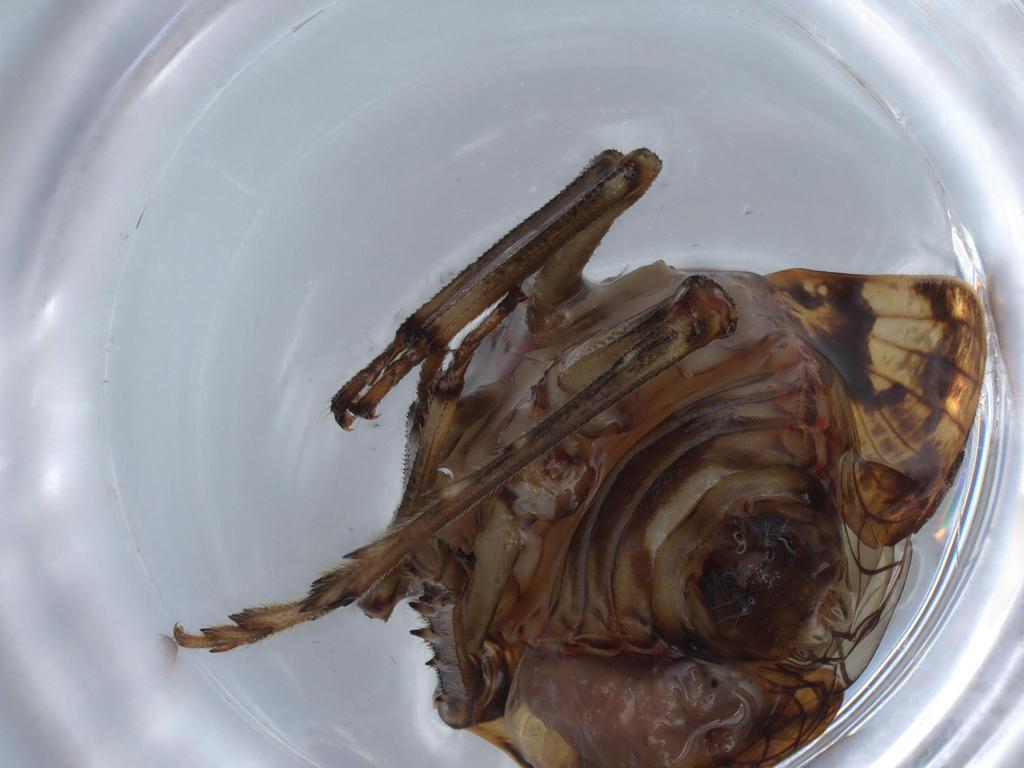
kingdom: Animalia
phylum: Arthropoda
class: Insecta
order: Hemiptera
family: Issidae
